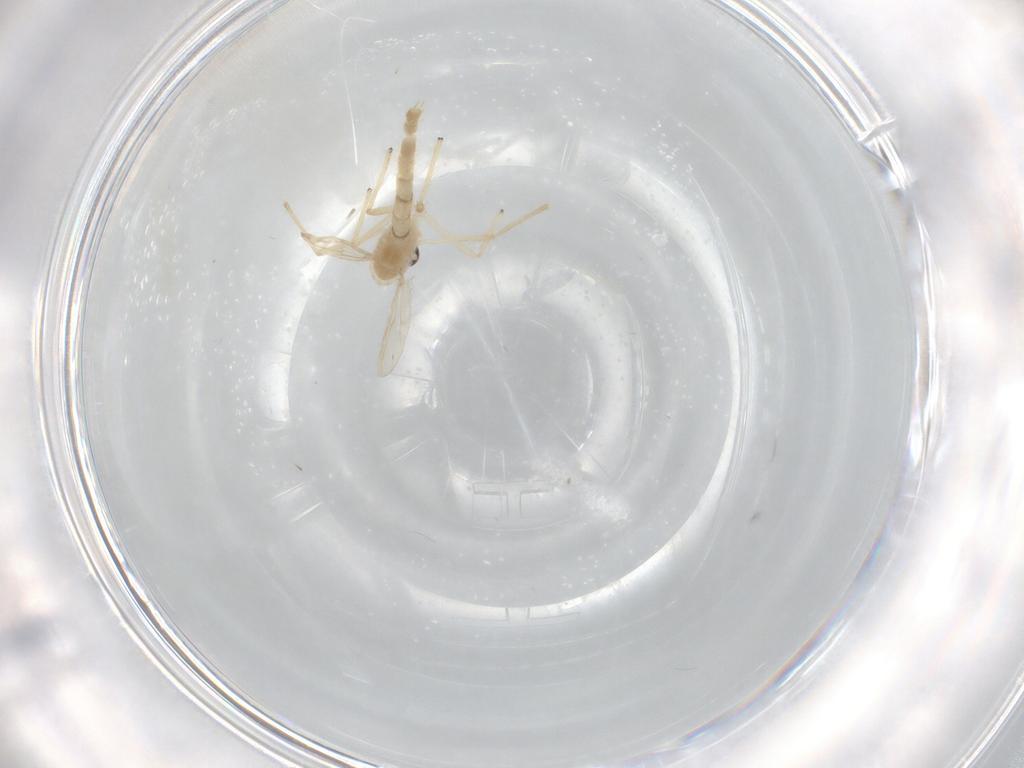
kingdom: Animalia
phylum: Arthropoda
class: Insecta
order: Diptera
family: Chironomidae
